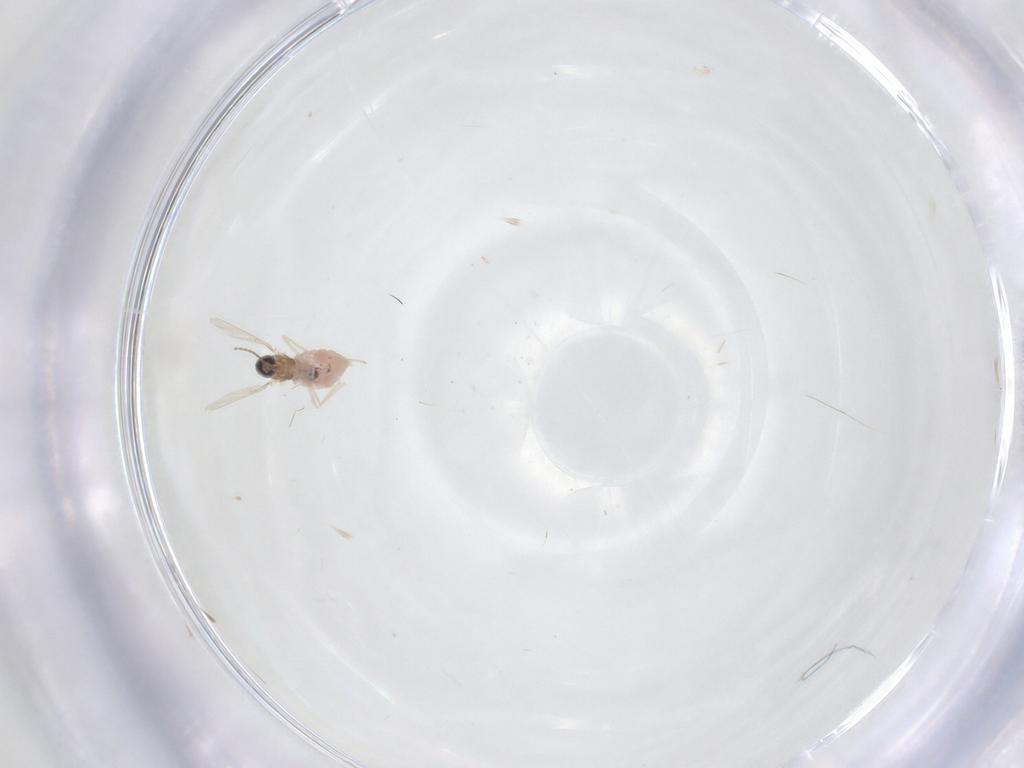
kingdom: Animalia
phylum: Arthropoda
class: Insecta
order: Diptera
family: Cecidomyiidae
